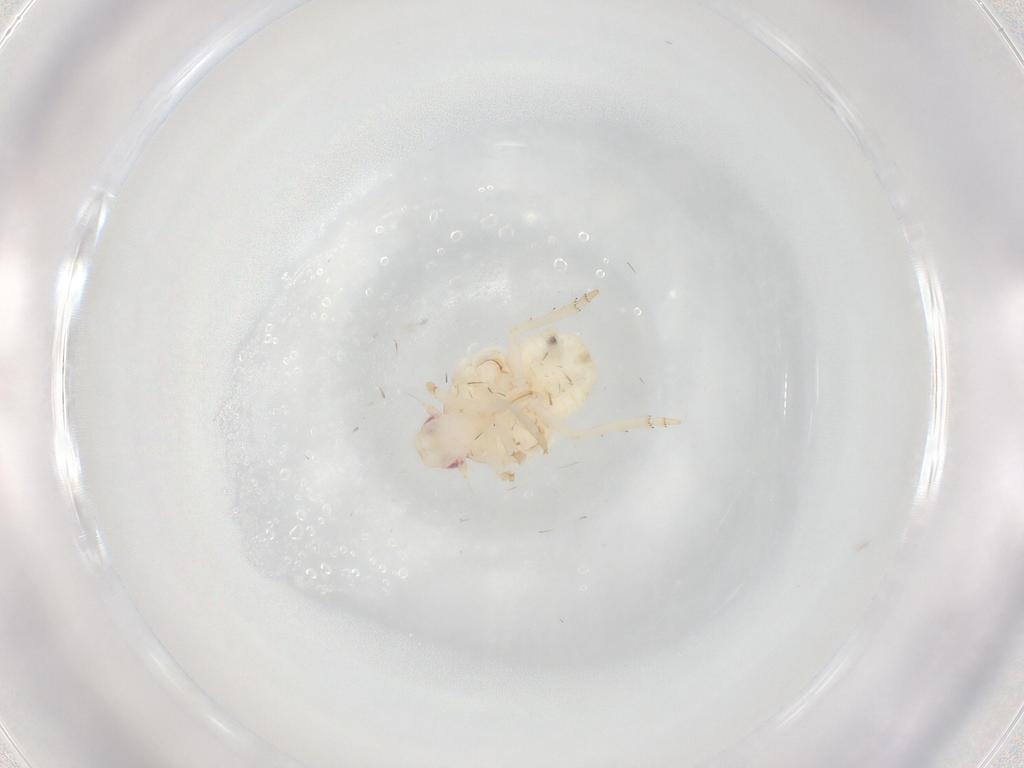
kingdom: Animalia
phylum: Arthropoda
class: Insecta
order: Hemiptera
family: Flatidae
